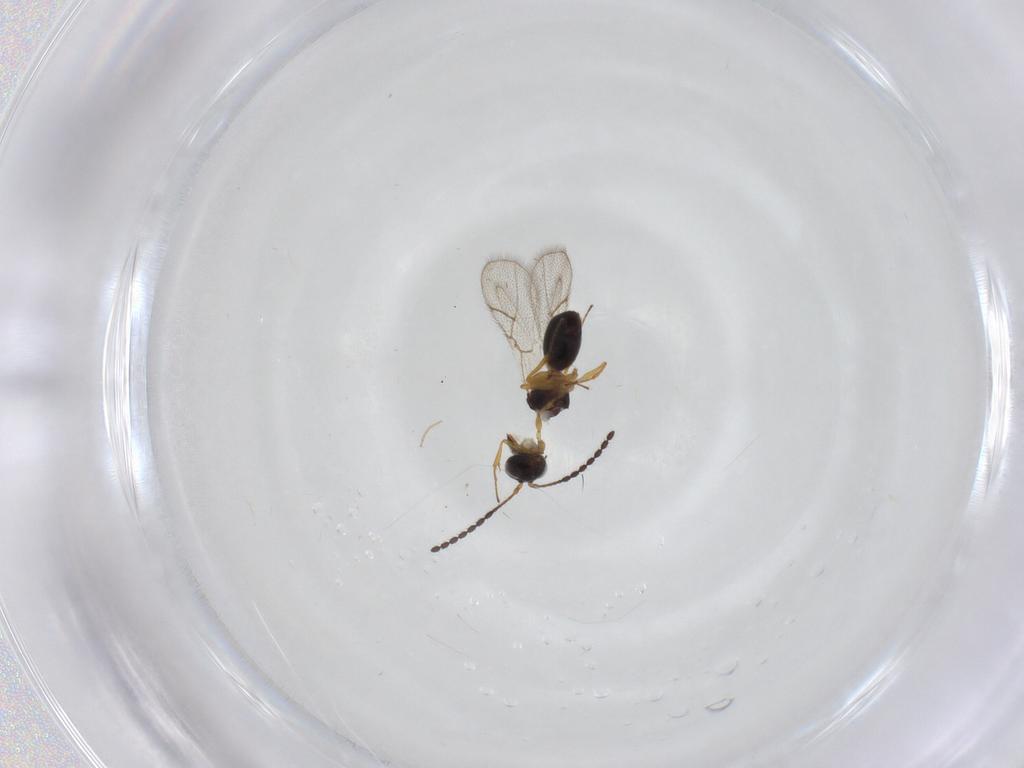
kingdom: Animalia
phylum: Arthropoda
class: Insecta
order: Hymenoptera
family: Figitidae
